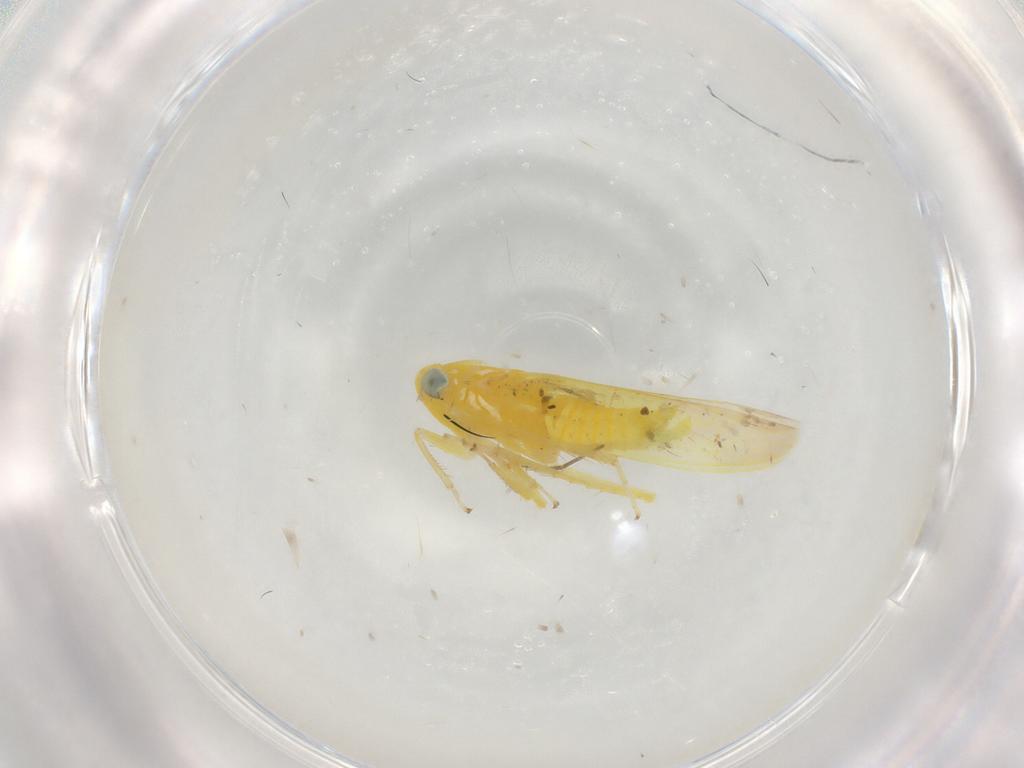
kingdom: Animalia
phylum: Arthropoda
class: Insecta
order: Hemiptera
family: Cicadellidae
